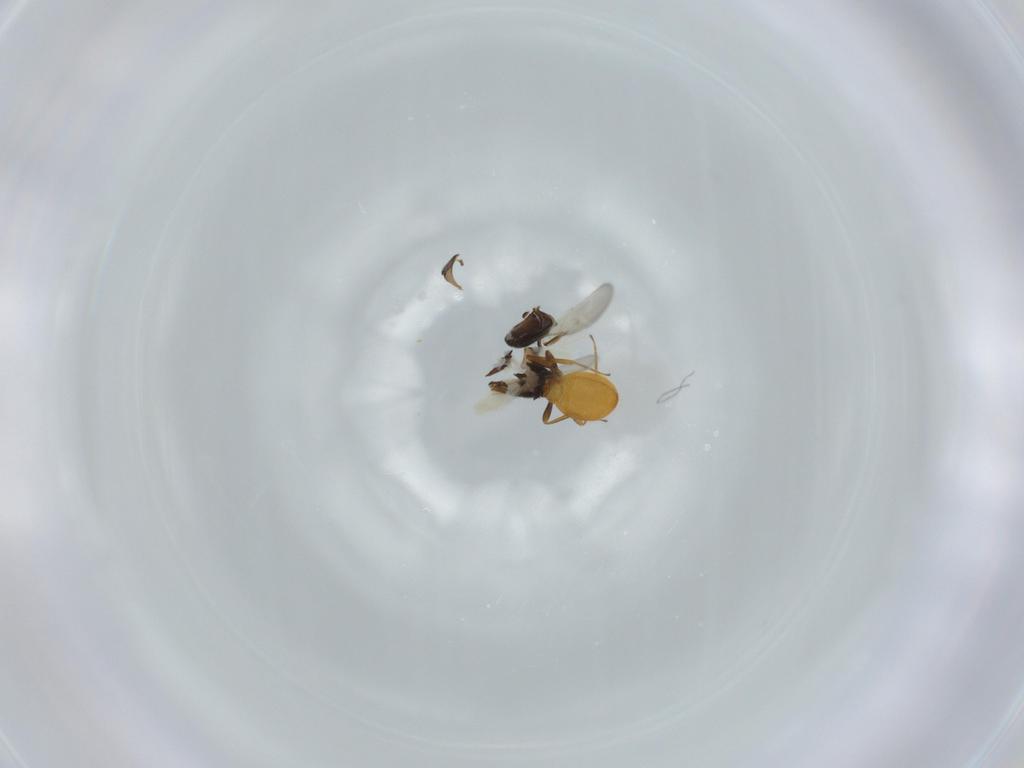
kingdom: Animalia
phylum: Arthropoda
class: Insecta
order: Hymenoptera
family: Scelionidae
